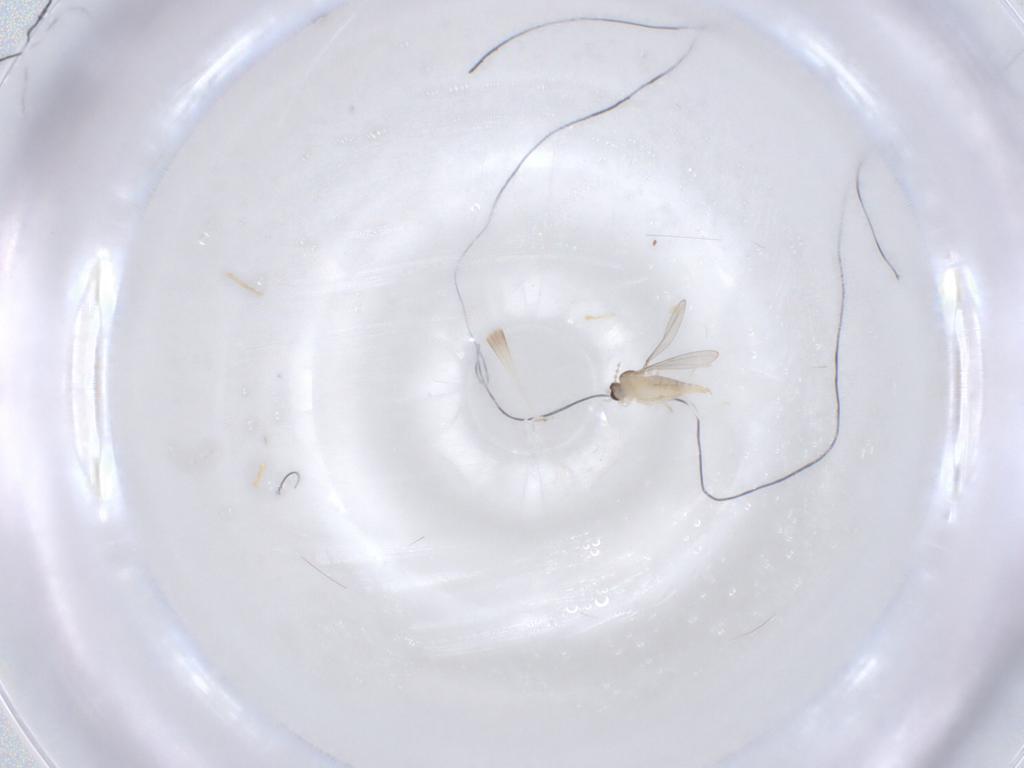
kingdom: Animalia
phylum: Arthropoda
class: Insecta
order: Diptera
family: Cecidomyiidae
